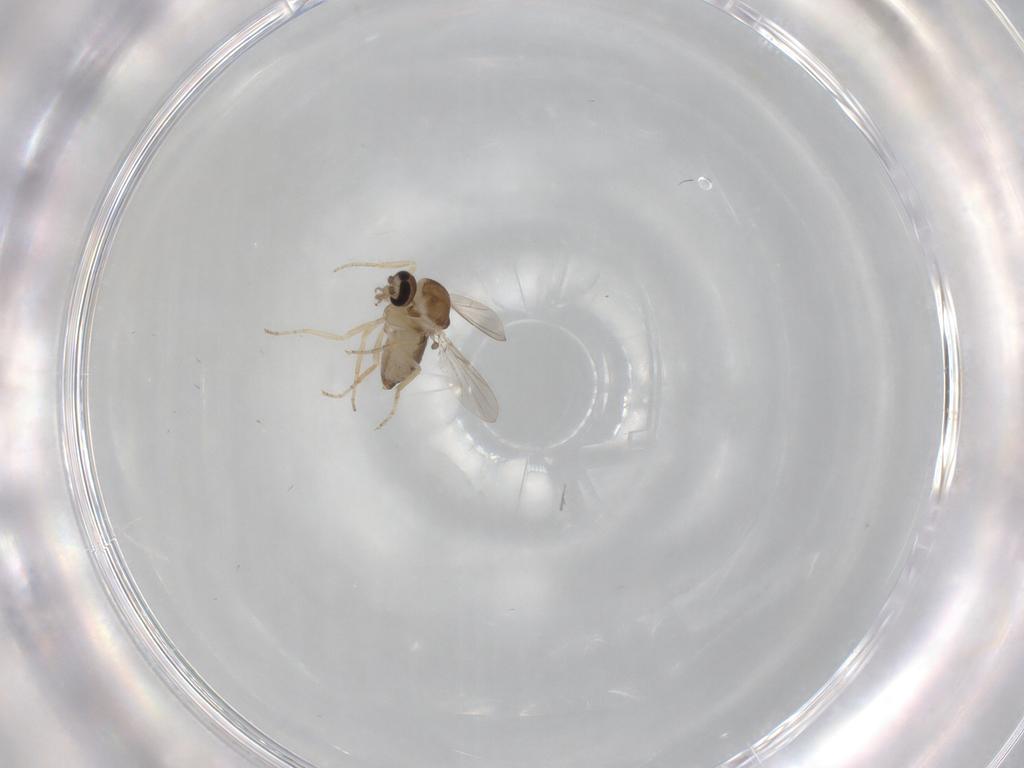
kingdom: Animalia
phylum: Arthropoda
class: Insecta
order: Diptera
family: Ceratopogonidae
